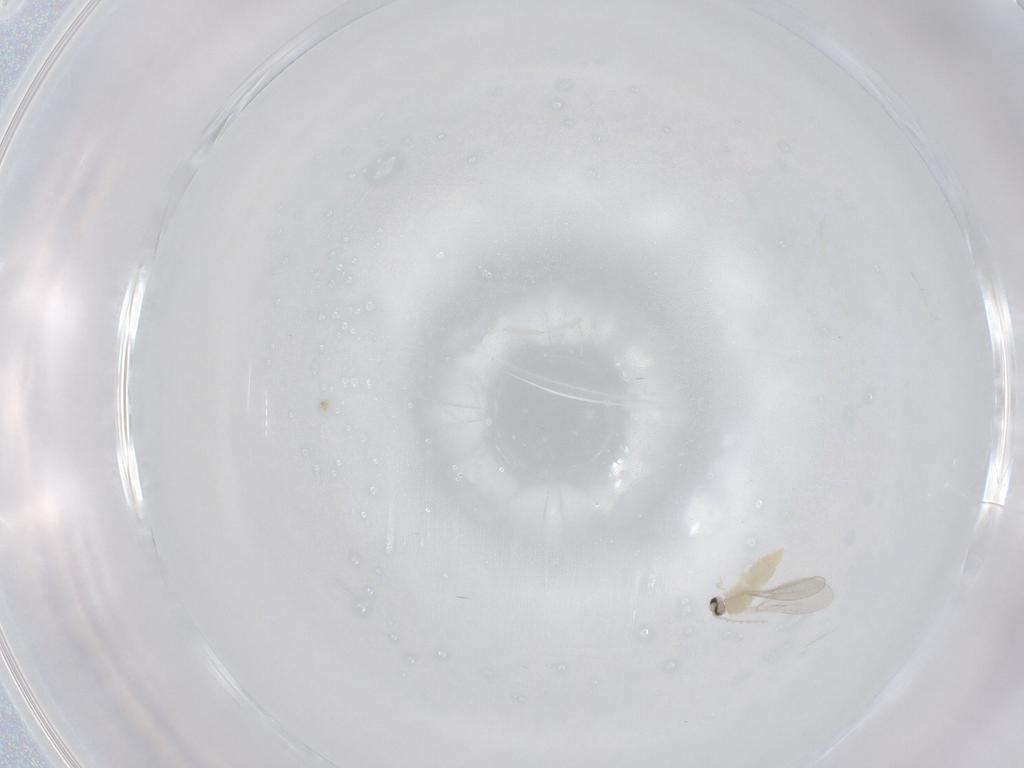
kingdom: Animalia
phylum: Arthropoda
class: Insecta
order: Diptera
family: Cecidomyiidae
